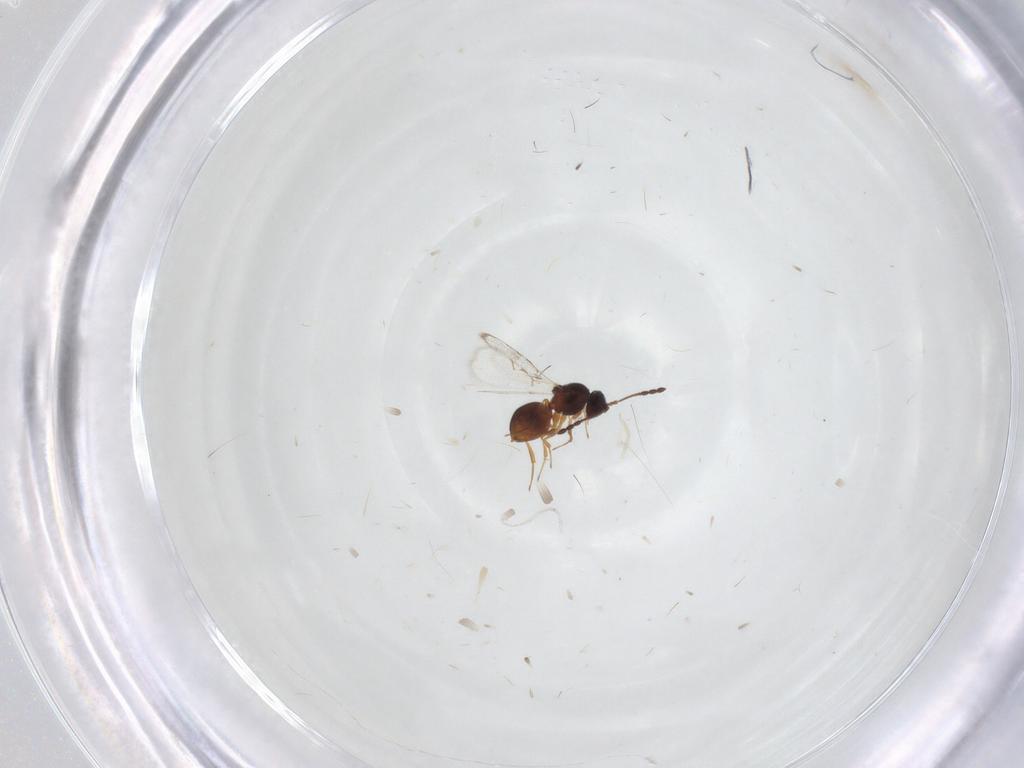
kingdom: Animalia
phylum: Arthropoda
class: Insecta
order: Hymenoptera
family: Figitidae
